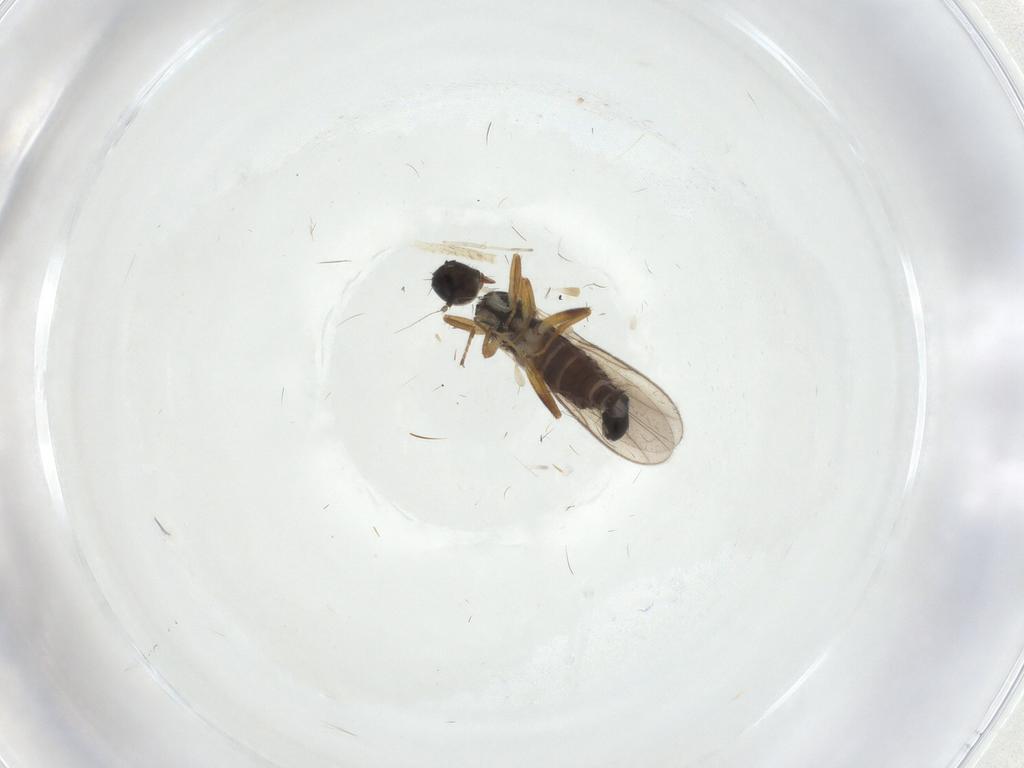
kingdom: Animalia
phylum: Arthropoda
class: Insecta
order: Diptera
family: Hybotidae
